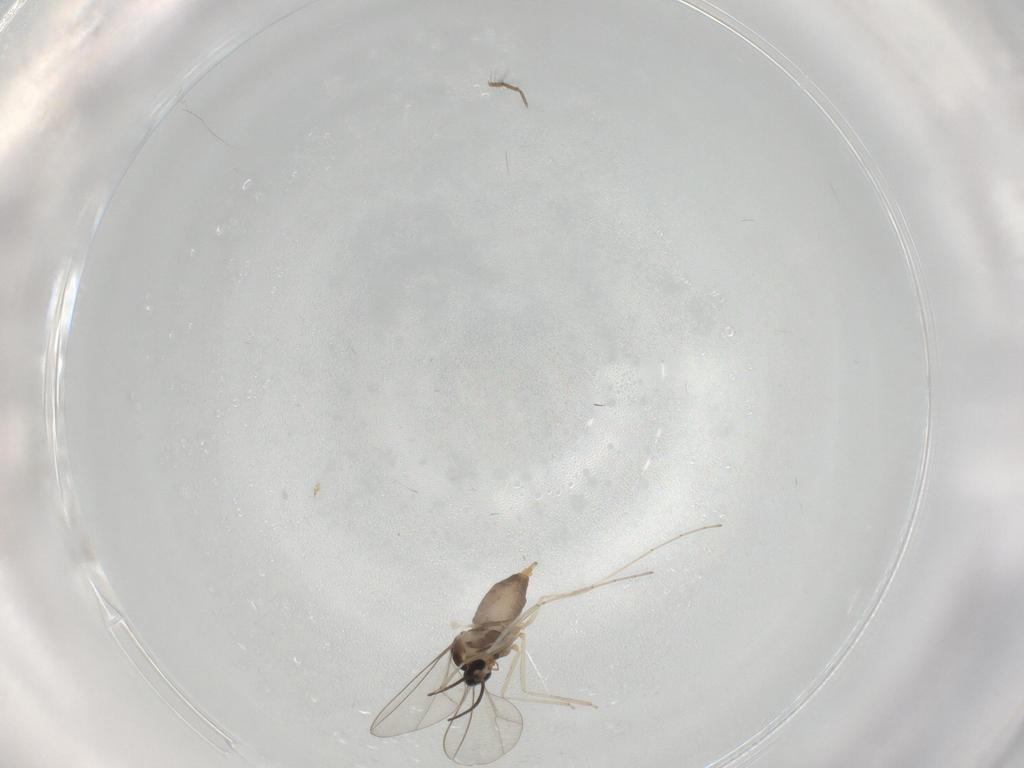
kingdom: Animalia
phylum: Arthropoda
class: Insecta
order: Diptera
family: Cecidomyiidae
